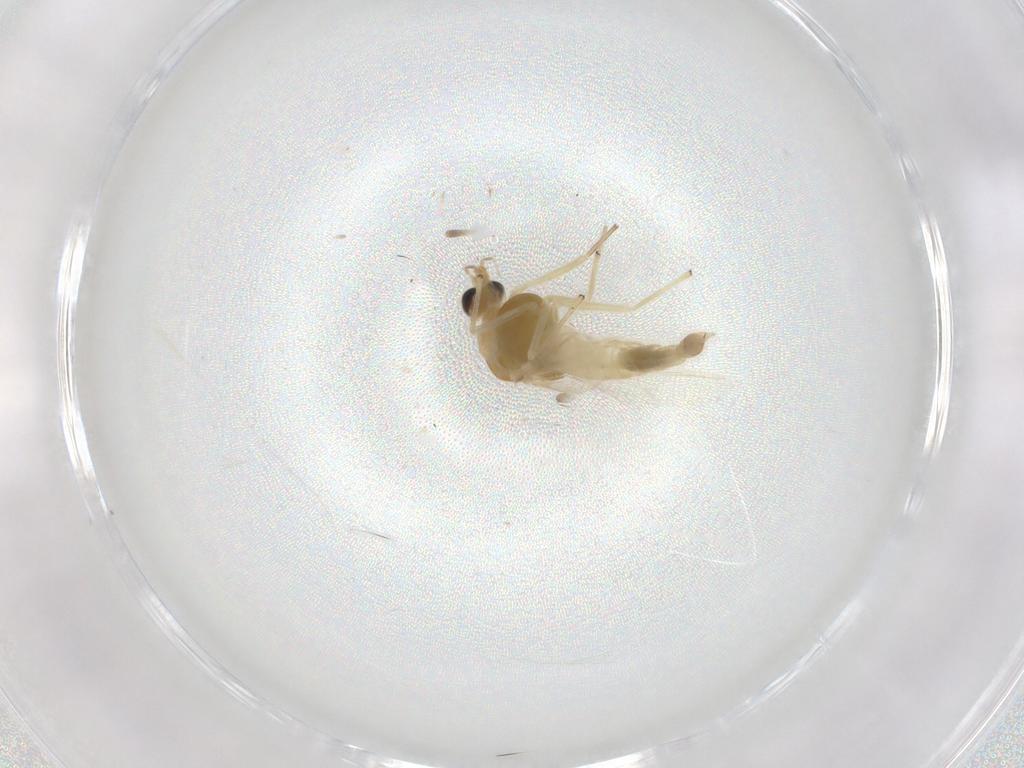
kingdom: Animalia
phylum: Arthropoda
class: Insecta
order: Diptera
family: Chironomidae
